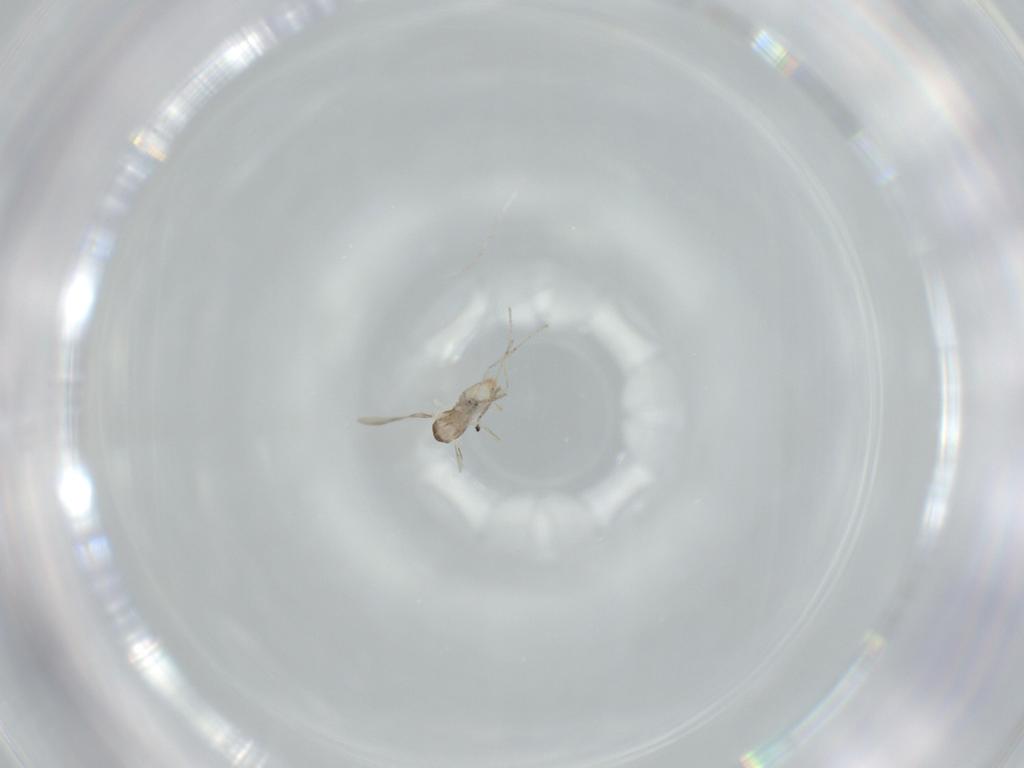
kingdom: Animalia
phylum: Arthropoda
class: Insecta
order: Diptera
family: Cecidomyiidae
